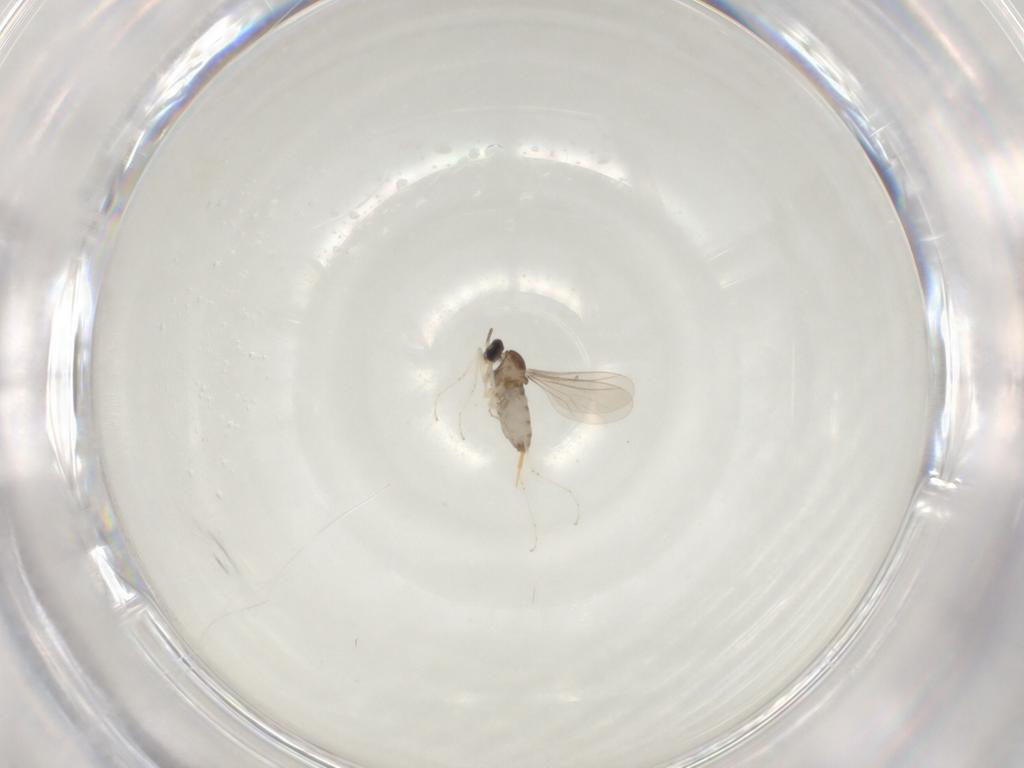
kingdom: Animalia
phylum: Arthropoda
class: Insecta
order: Diptera
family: Cecidomyiidae
